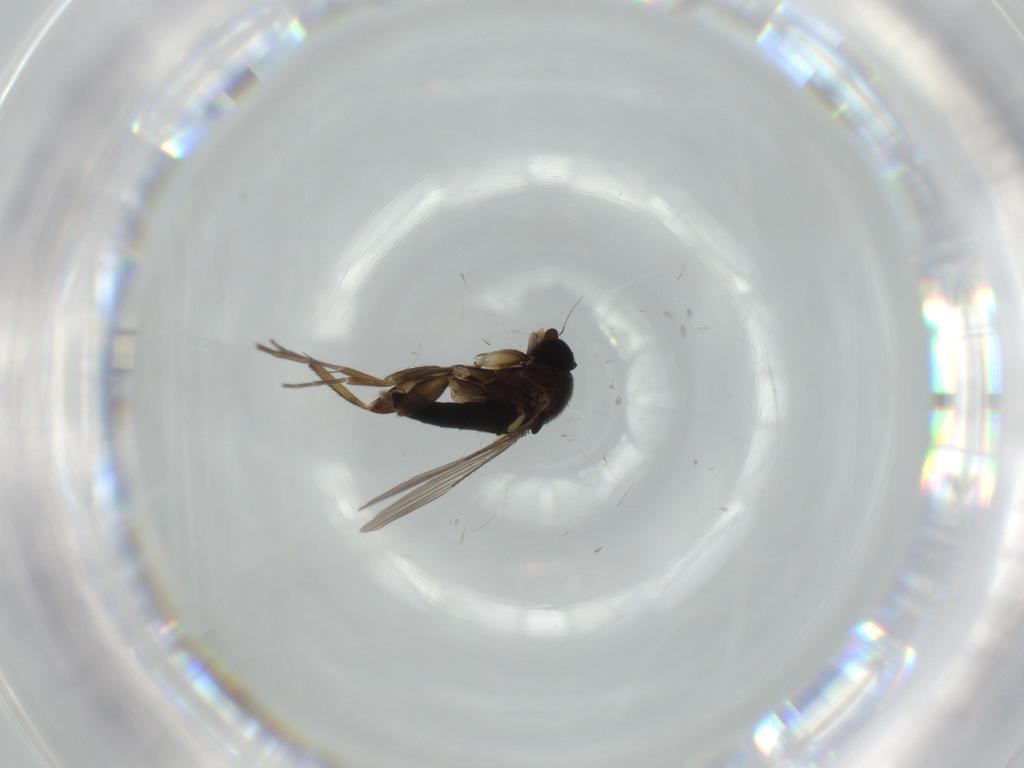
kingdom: Animalia
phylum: Arthropoda
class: Insecta
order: Diptera
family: Phoridae
